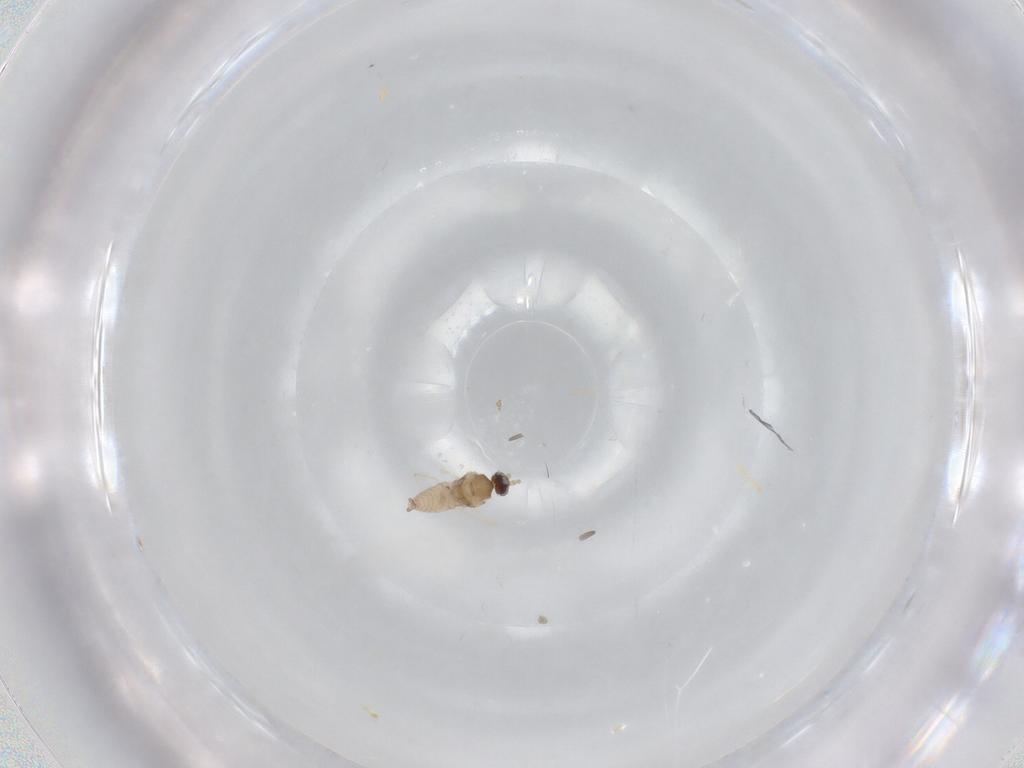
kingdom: Animalia
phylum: Arthropoda
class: Insecta
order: Diptera
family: Cecidomyiidae
